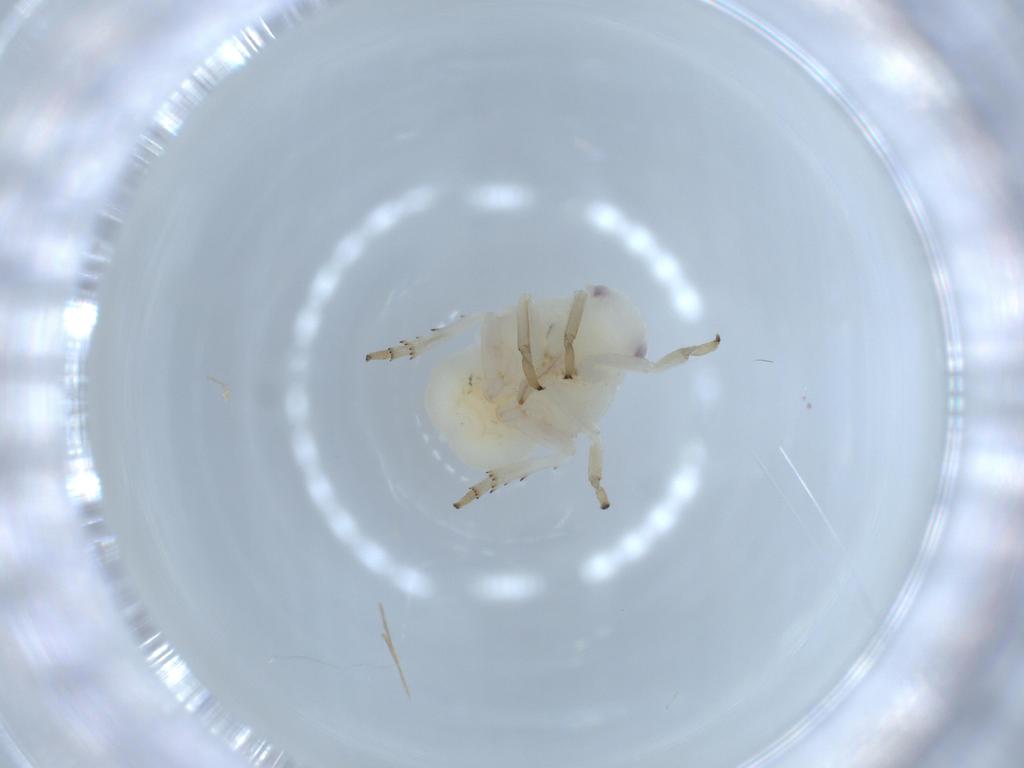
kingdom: Animalia
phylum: Arthropoda
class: Insecta
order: Hemiptera
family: Flatidae
